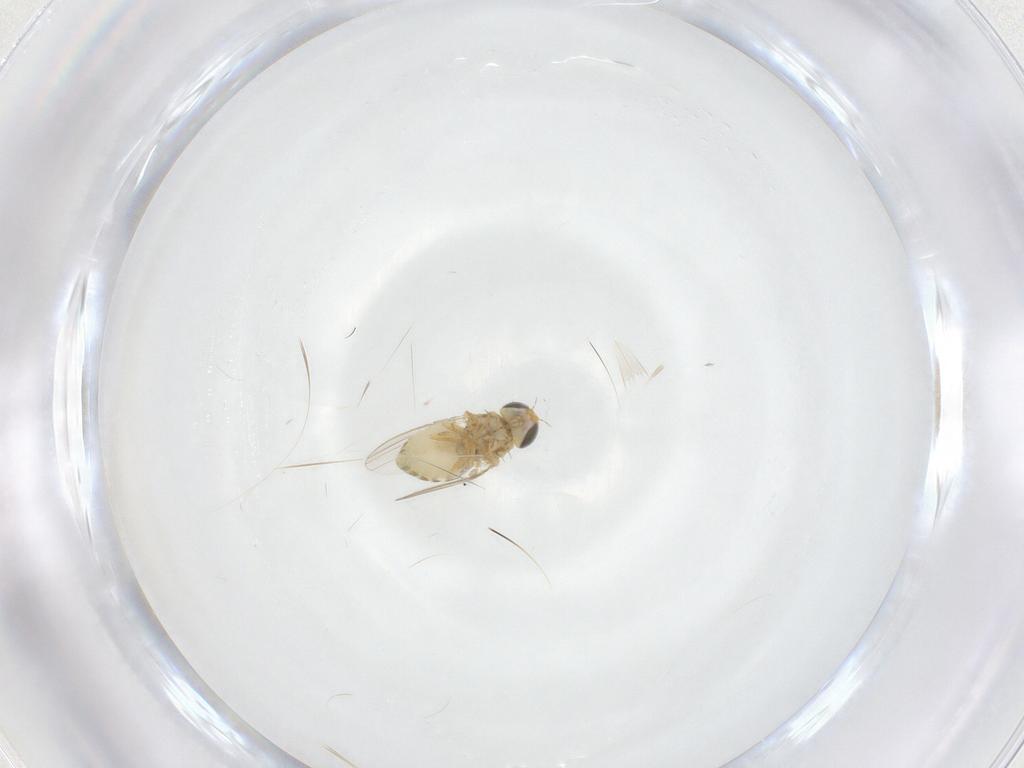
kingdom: Animalia
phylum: Arthropoda
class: Insecta
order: Diptera
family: Chyromyidae
